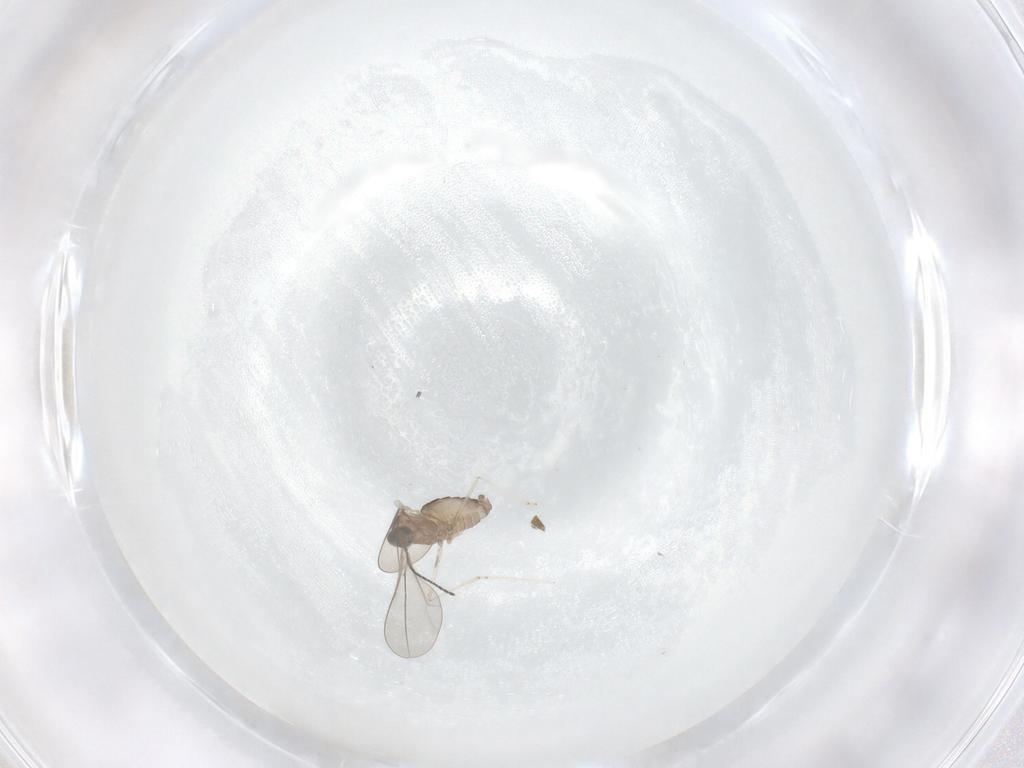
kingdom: Animalia
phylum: Arthropoda
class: Insecta
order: Diptera
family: Cecidomyiidae
